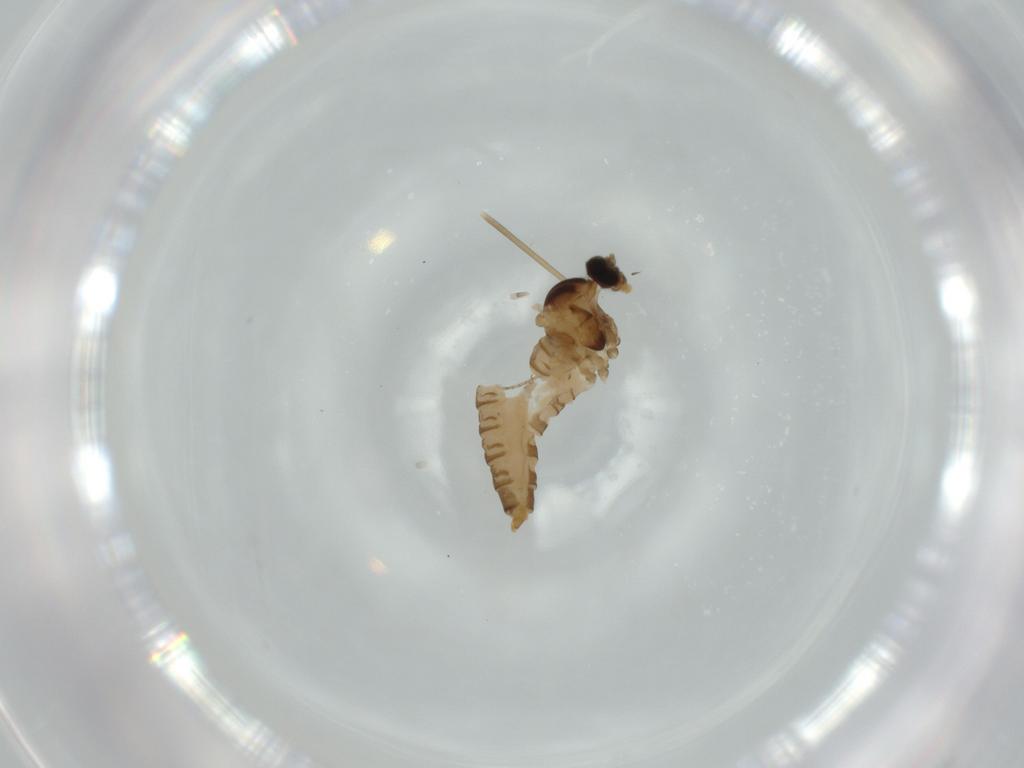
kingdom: Animalia
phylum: Arthropoda
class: Insecta
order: Diptera
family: Cecidomyiidae
